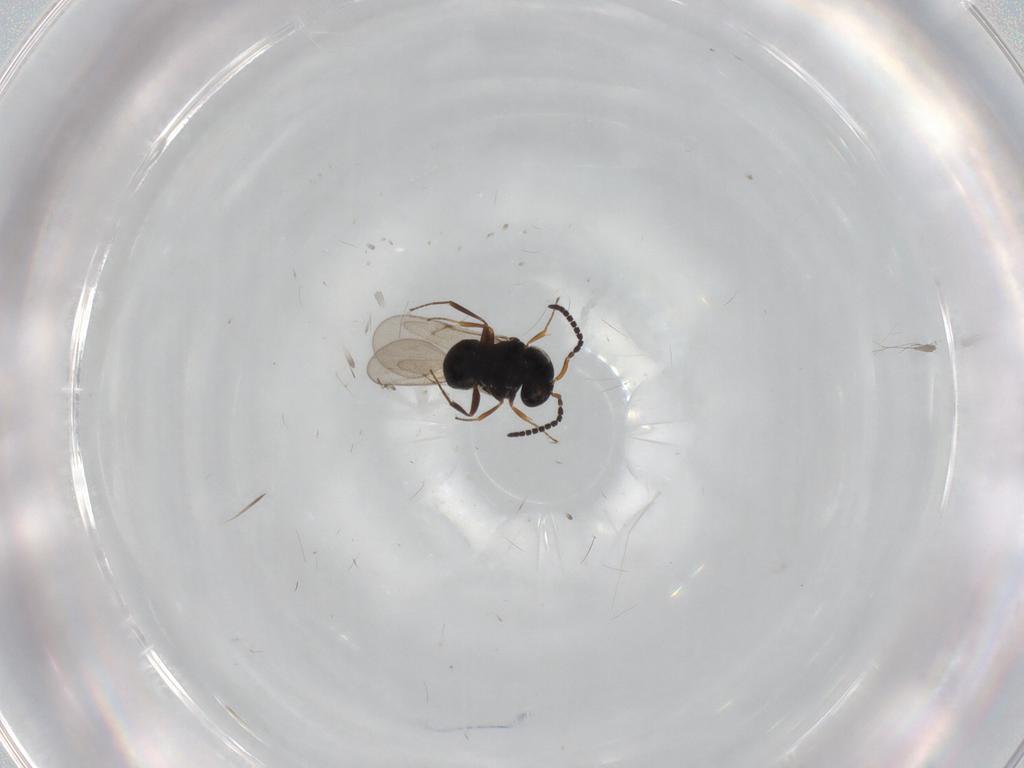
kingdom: Animalia
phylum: Arthropoda
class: Insecta
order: Hymenoptera
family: Scelionidae
